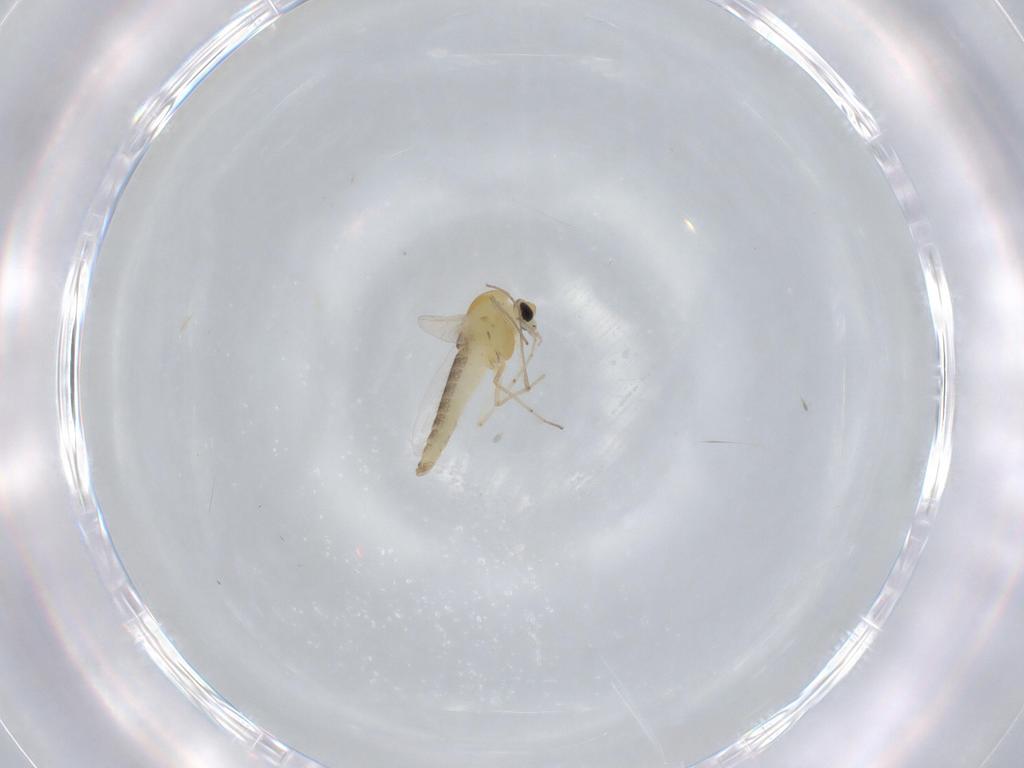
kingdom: Animalia
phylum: Arthropoda
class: Insecta
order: Diptera
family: Chironomidae
